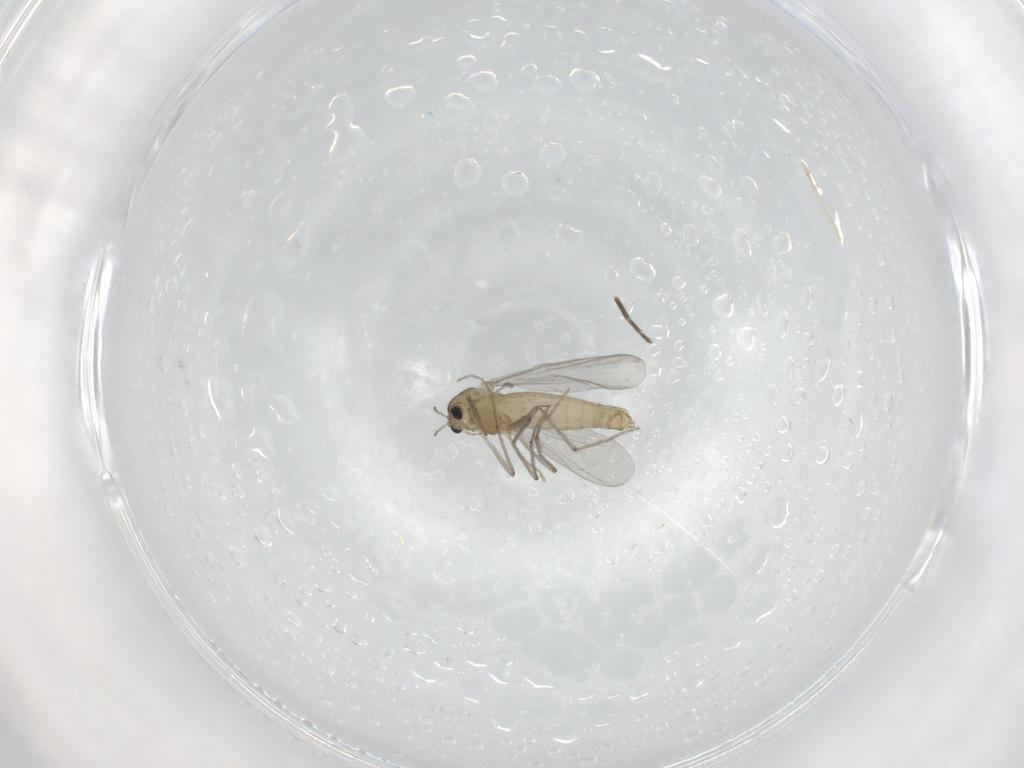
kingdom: Animalia
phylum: Arthropoda
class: Insecta
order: Diptera
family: Chironomidae
